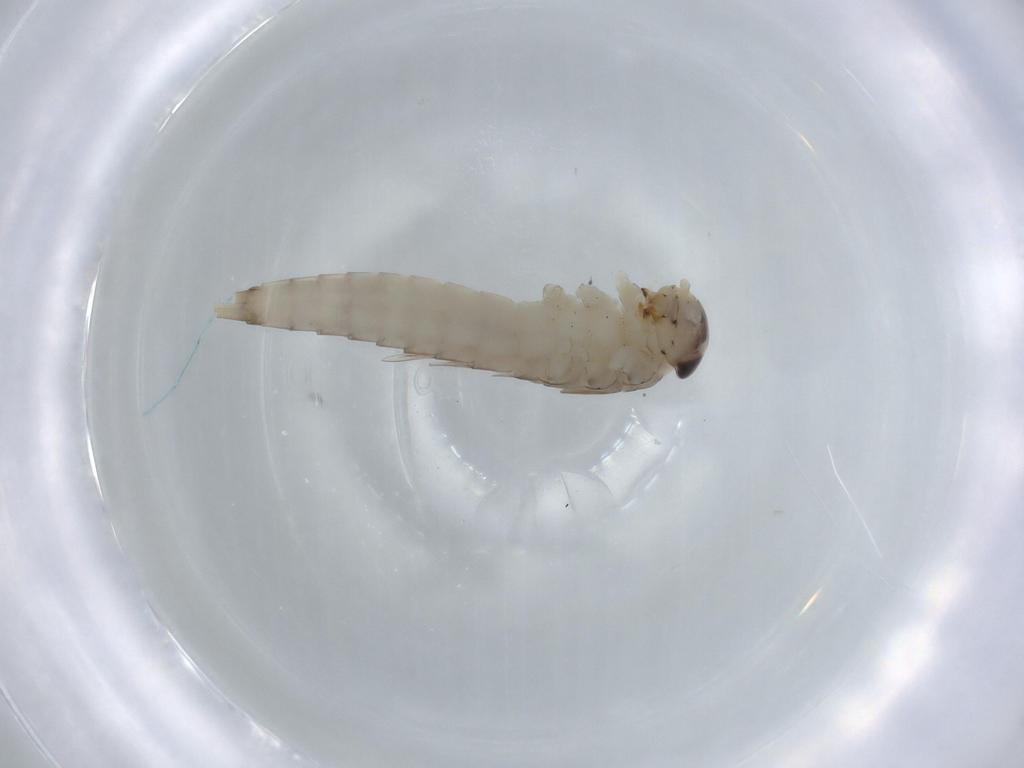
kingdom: Animalia
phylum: Arthropoda
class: Insecta
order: Ephemeroptera
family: Baetidae
